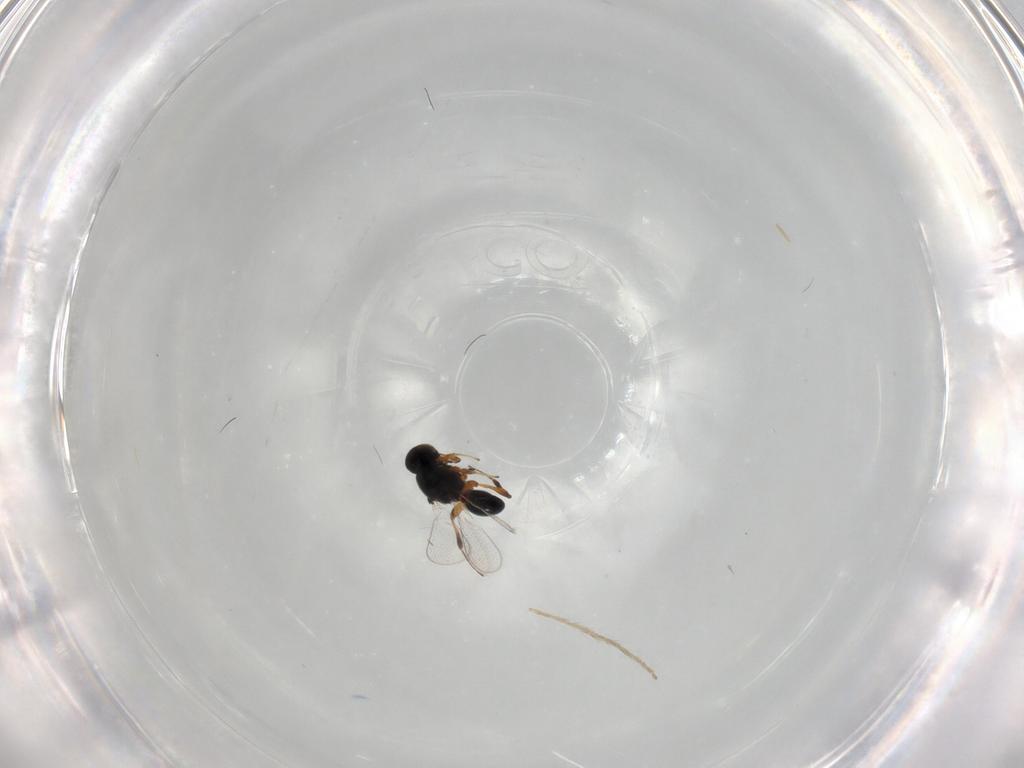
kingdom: Animalia
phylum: Arthropoda
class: Insecta
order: Hymenoptera
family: Platygastridae
